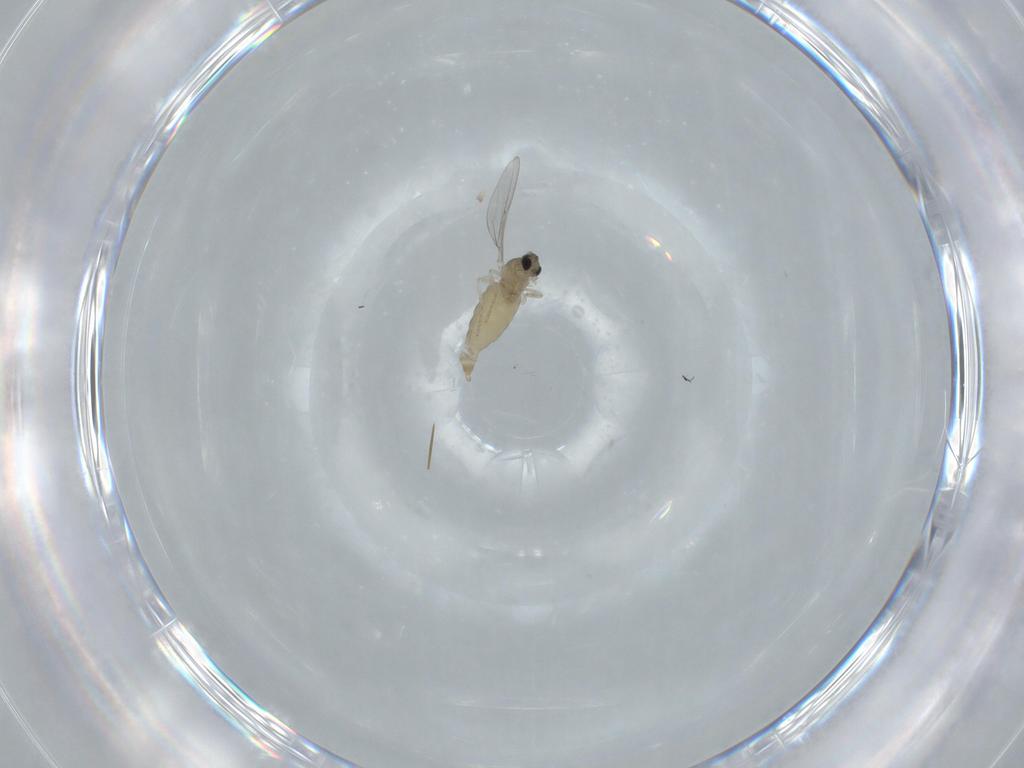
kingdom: Animalia
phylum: Arthropoda
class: Insecta
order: Diptera
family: Cecidomyiidae
